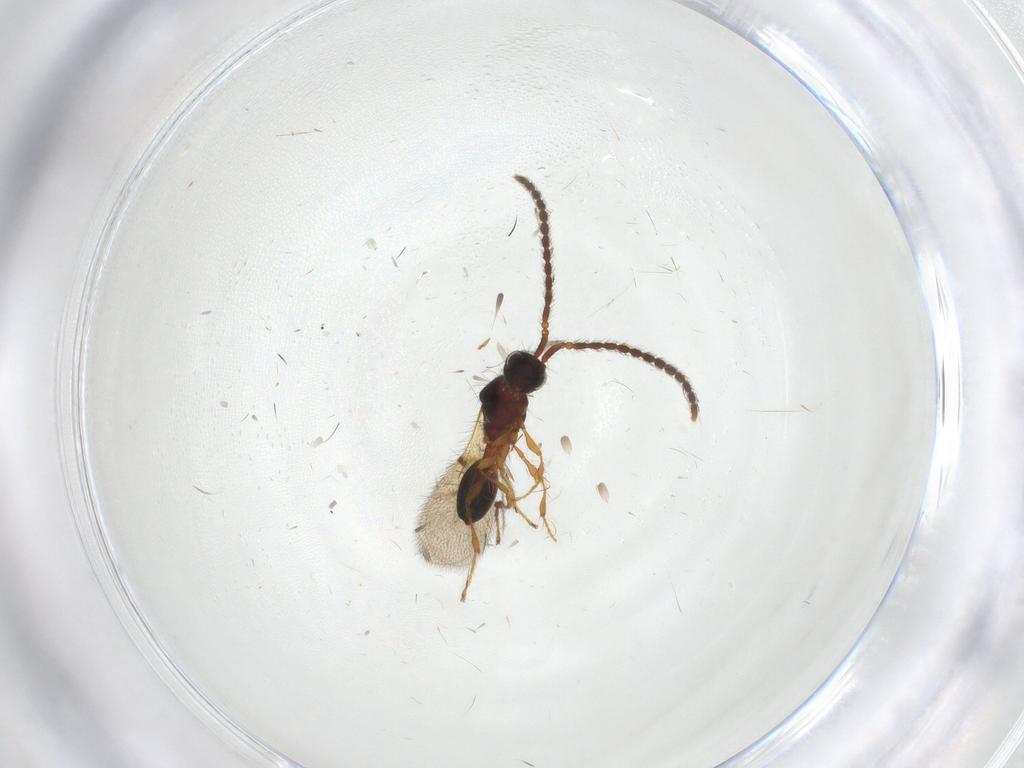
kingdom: Animalia
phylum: Arthropoda
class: Insecta
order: Hymenoptera
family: Diapriidae
